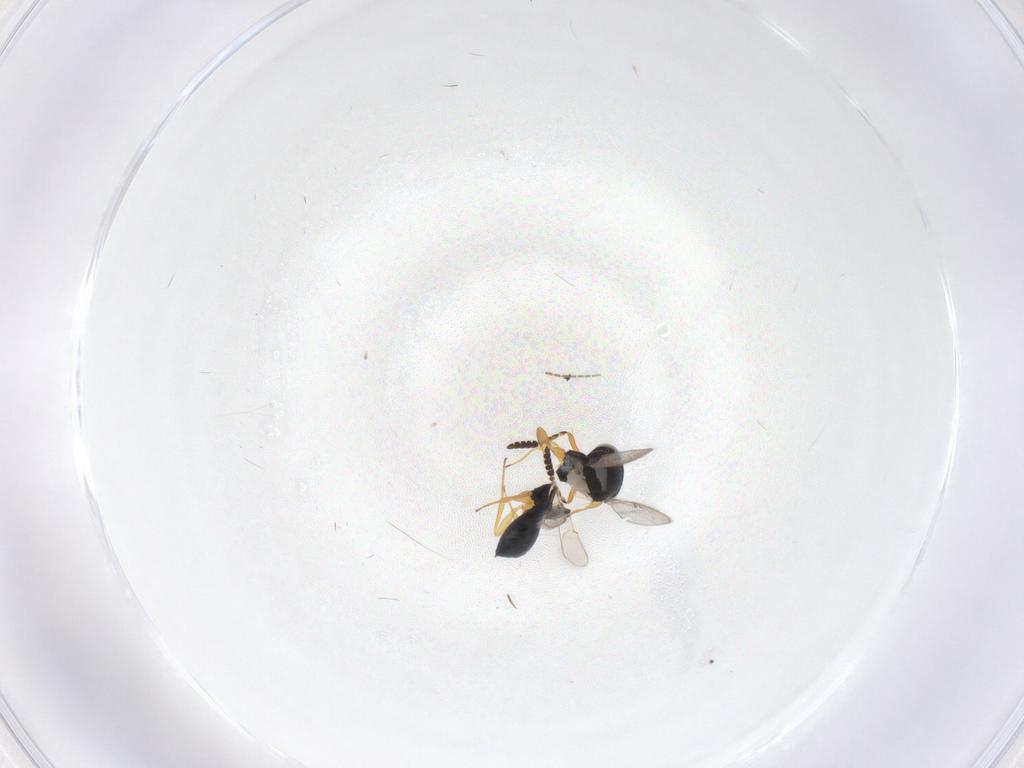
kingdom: Animalia
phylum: Arthropoda
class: Insecta
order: Hymenoptera
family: Scelionidae
